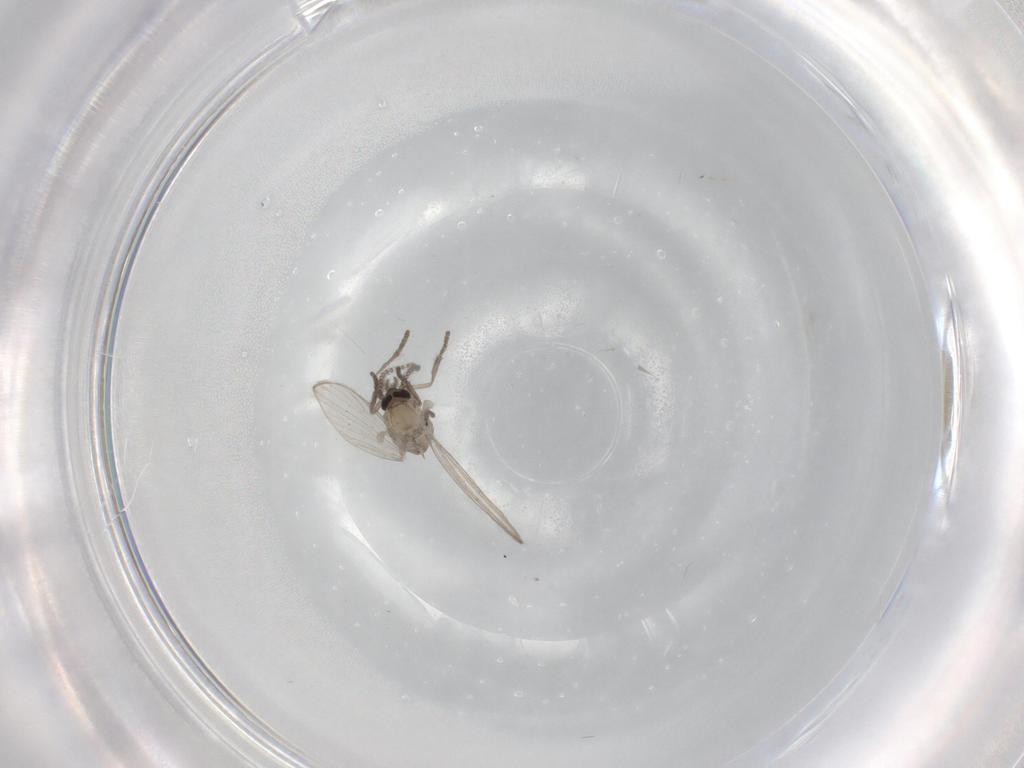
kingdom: Animalia
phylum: Arthropoda
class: Insecta
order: Diptera
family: Psychodidae
